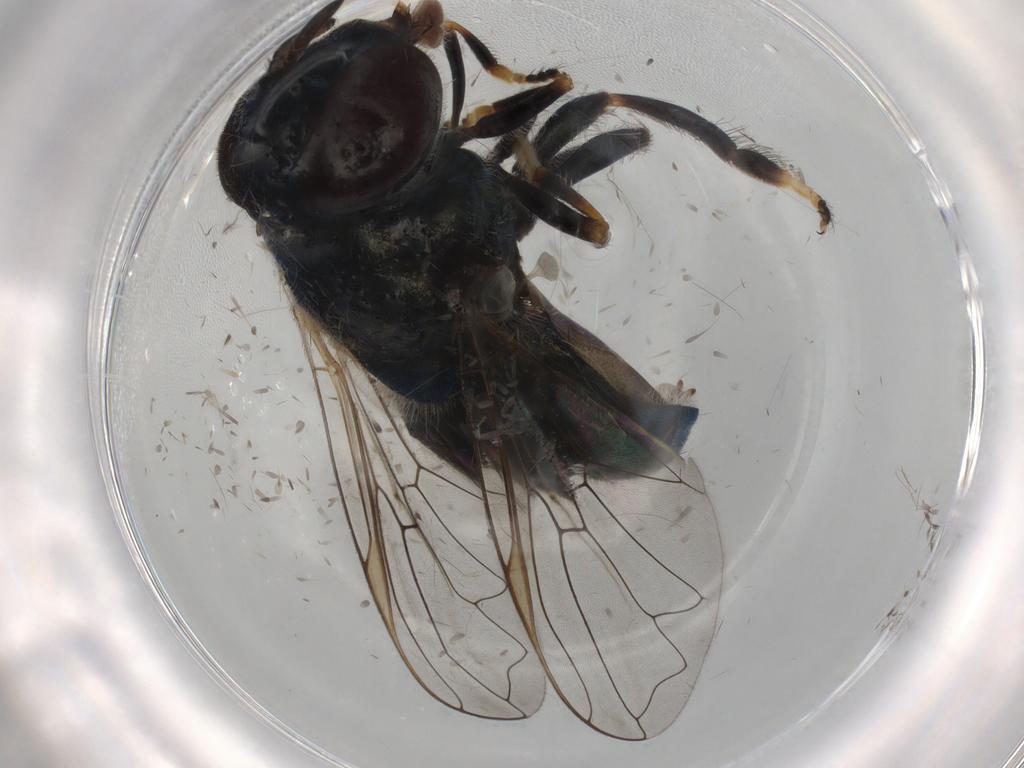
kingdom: Animalia
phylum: Arthropoda
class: Insecta
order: Diptera
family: Syrphidae
